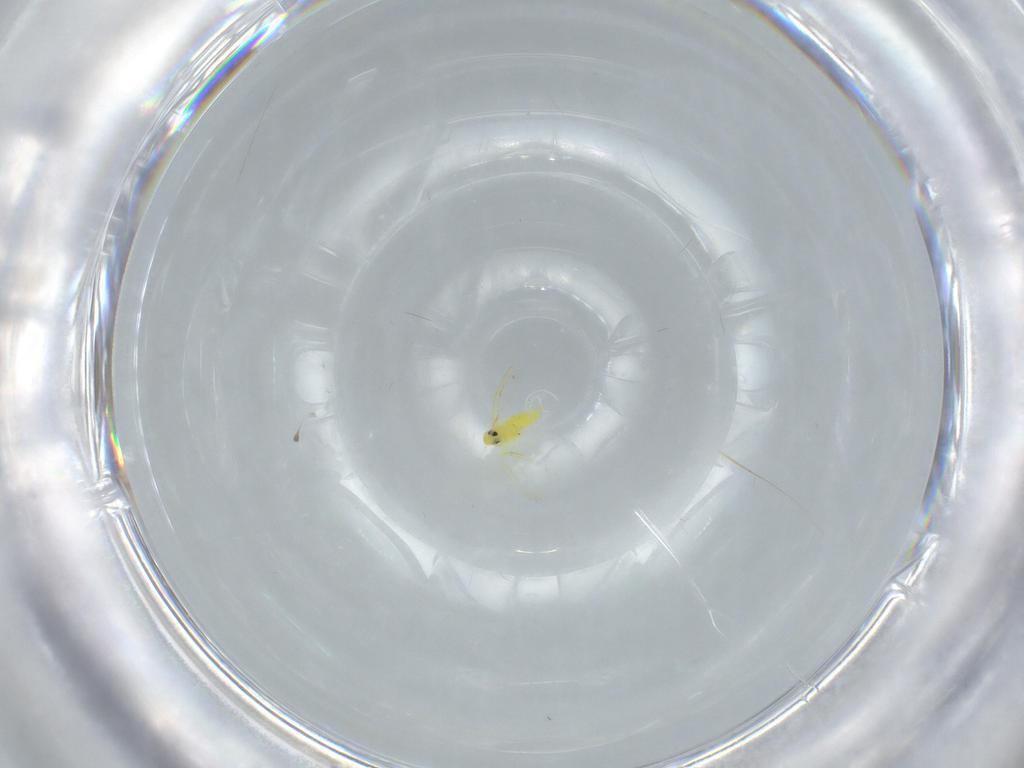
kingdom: Animalia
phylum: Arthropoda
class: Insecta
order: Hemiptera
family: Aleyrodidae
